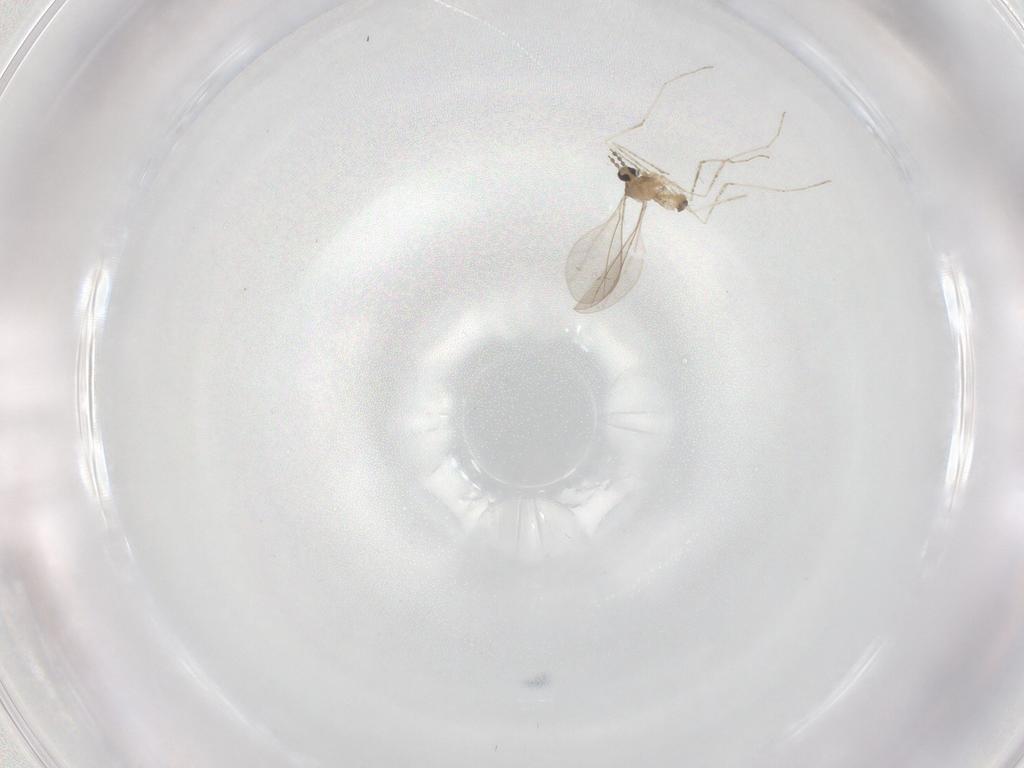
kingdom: Animalia
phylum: Arthropoda
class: Insecta
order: Diptera
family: Cecidomyiidae
